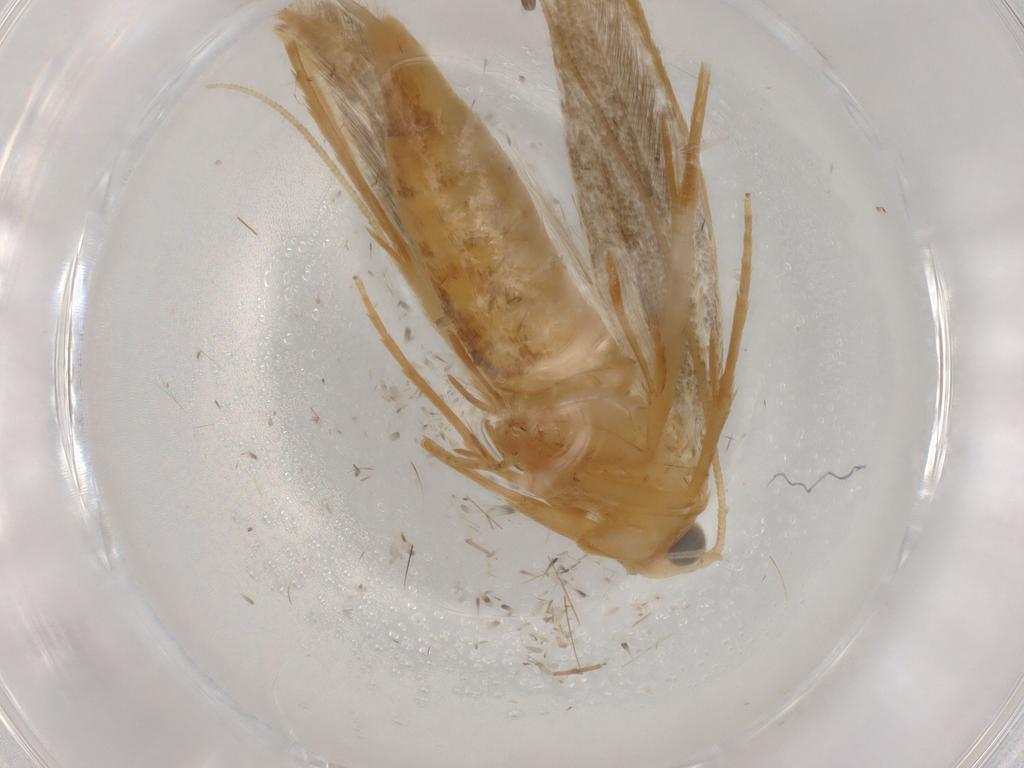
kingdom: Animalia
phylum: Arthropoda
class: Insecta
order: Lepidoptera
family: Tineidae
